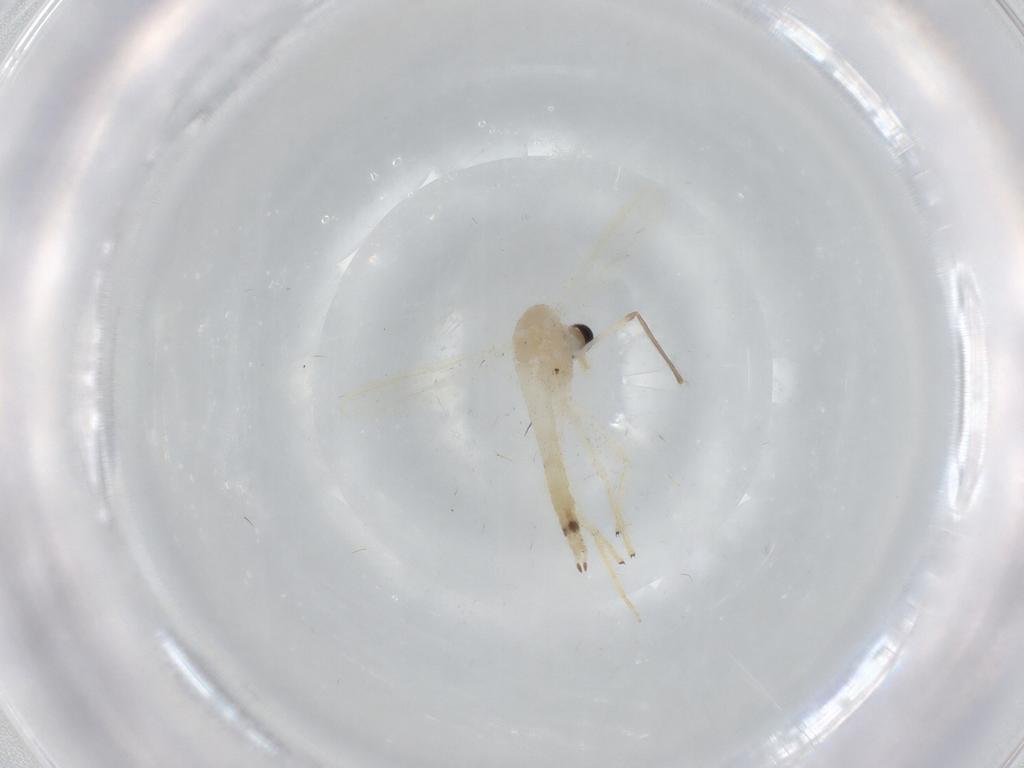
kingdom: Animalia
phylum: Arthropoda
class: Insecta
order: Diptera
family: Chironomidae
